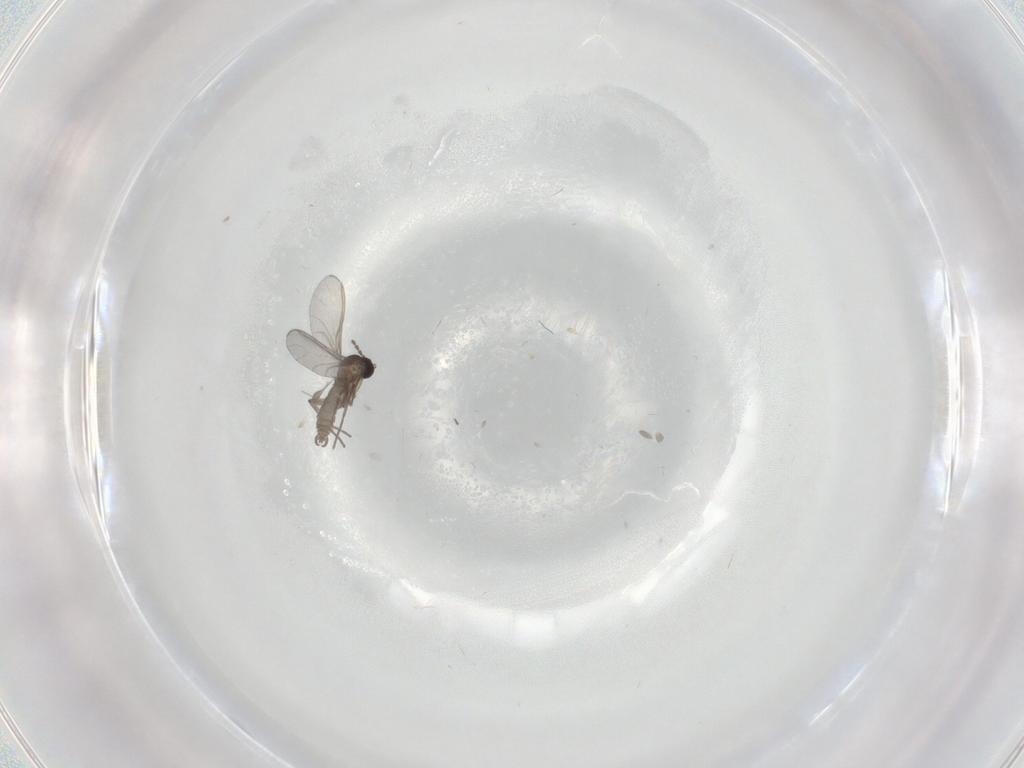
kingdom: Animalia
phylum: Arthropoda
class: Insecta
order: Diptera
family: Sciaridae
